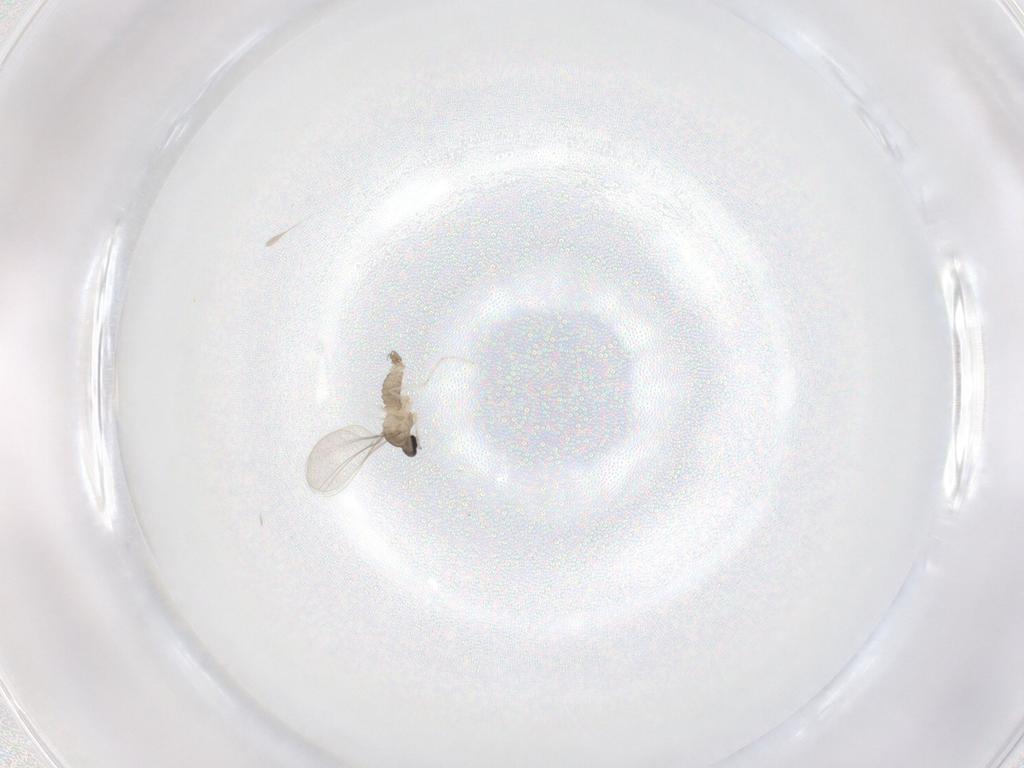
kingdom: Animalia
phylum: Arthropoda
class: Insecta
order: Diptera
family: Cecidomyiidae
